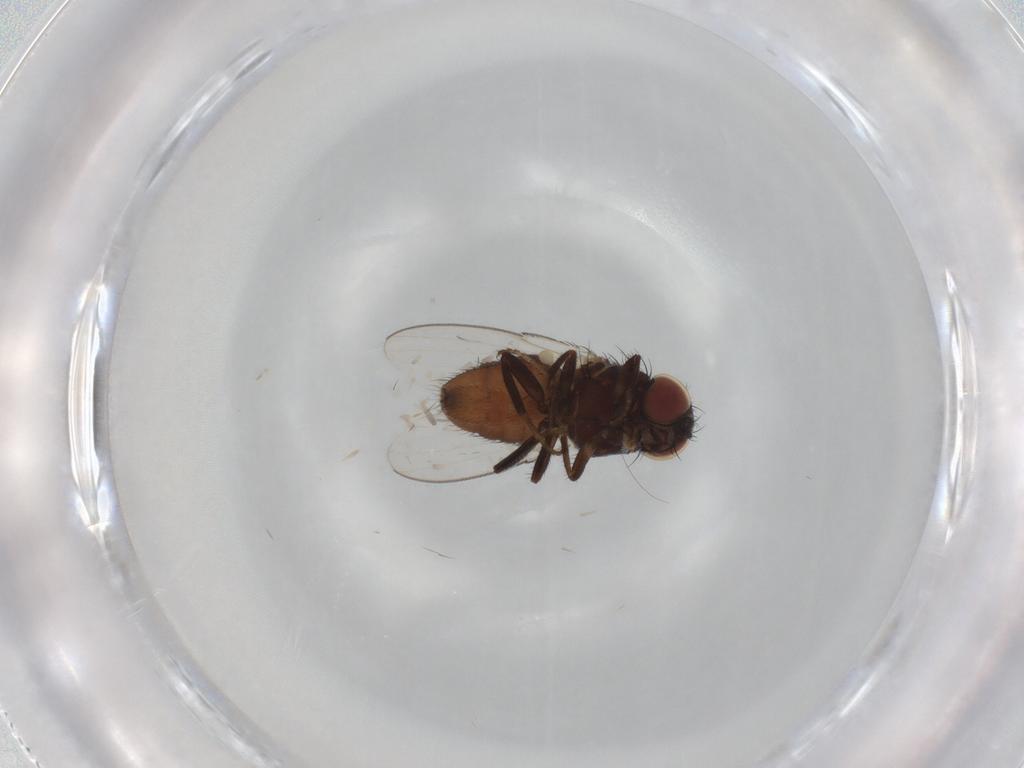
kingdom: Animalia
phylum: Arthropoda
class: Insecta
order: Diptera
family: Milichiidae
